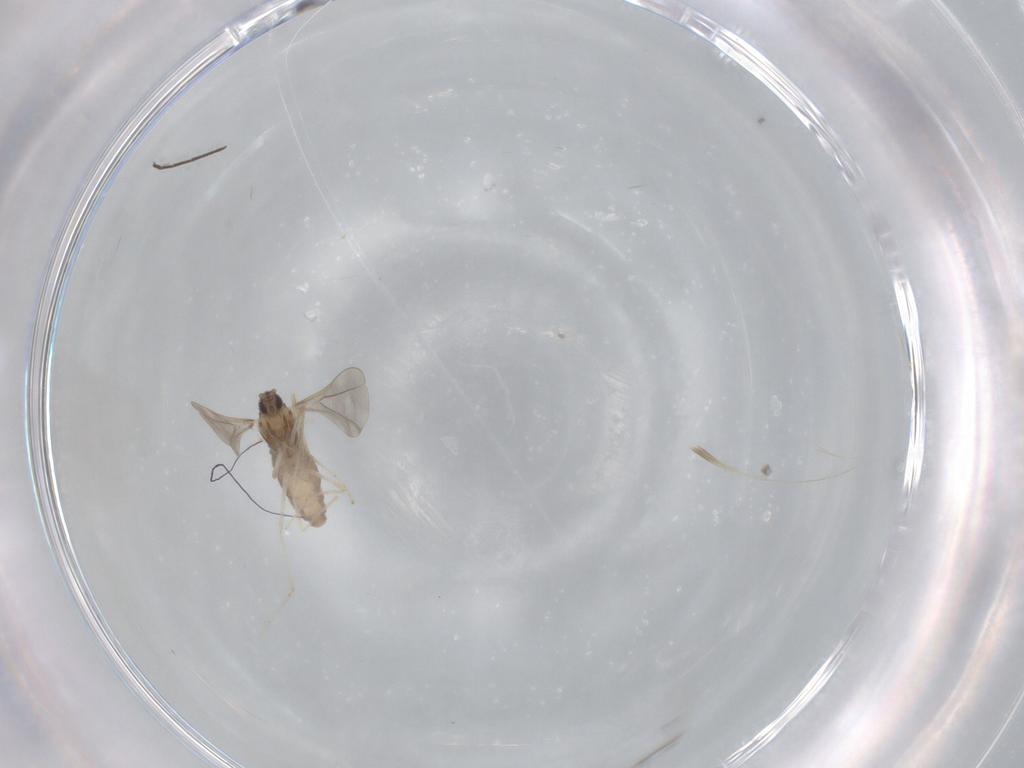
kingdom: Animalia
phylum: Arthropoda
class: Insecta
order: Diptera
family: Cecidomyiidae
